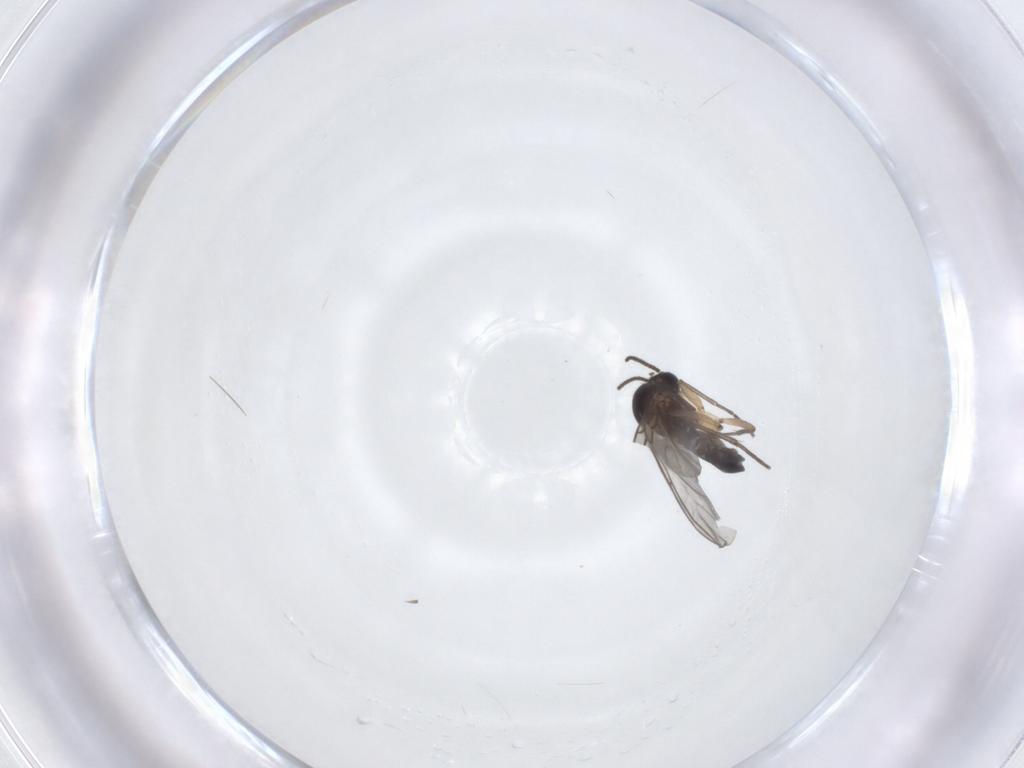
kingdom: Animalia
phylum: Arthropoda
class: Insecta
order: Diptera
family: Sciaridae
